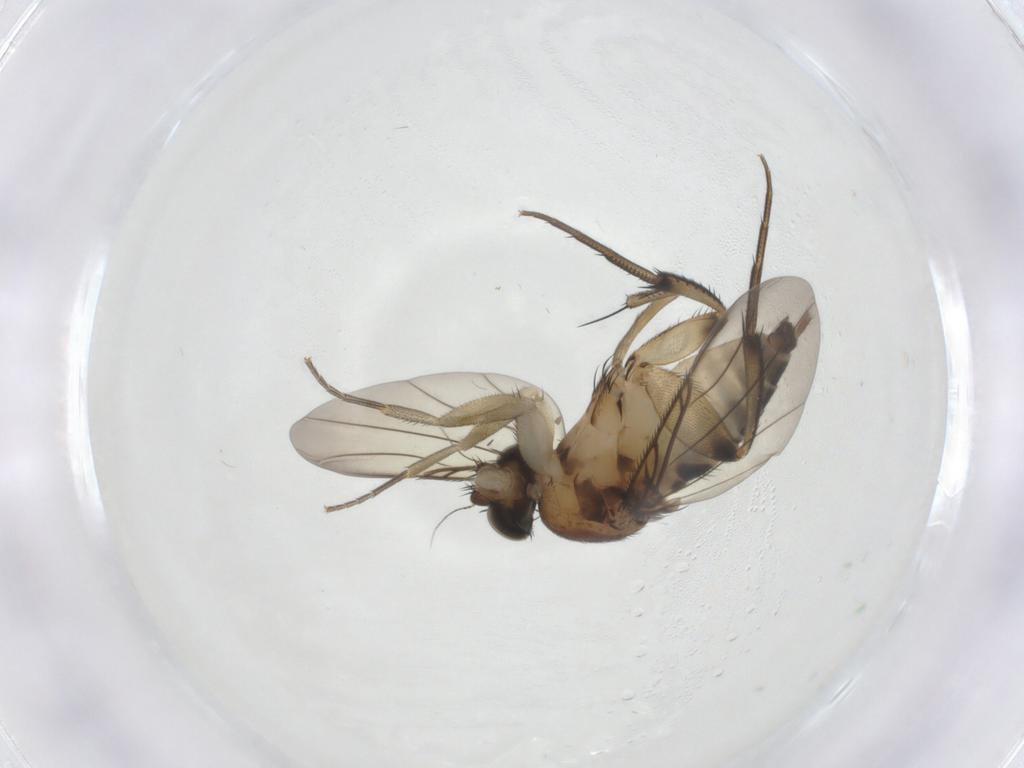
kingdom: Animalia
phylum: Arthropoda
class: Insecta
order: Diptera
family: Phoridae
